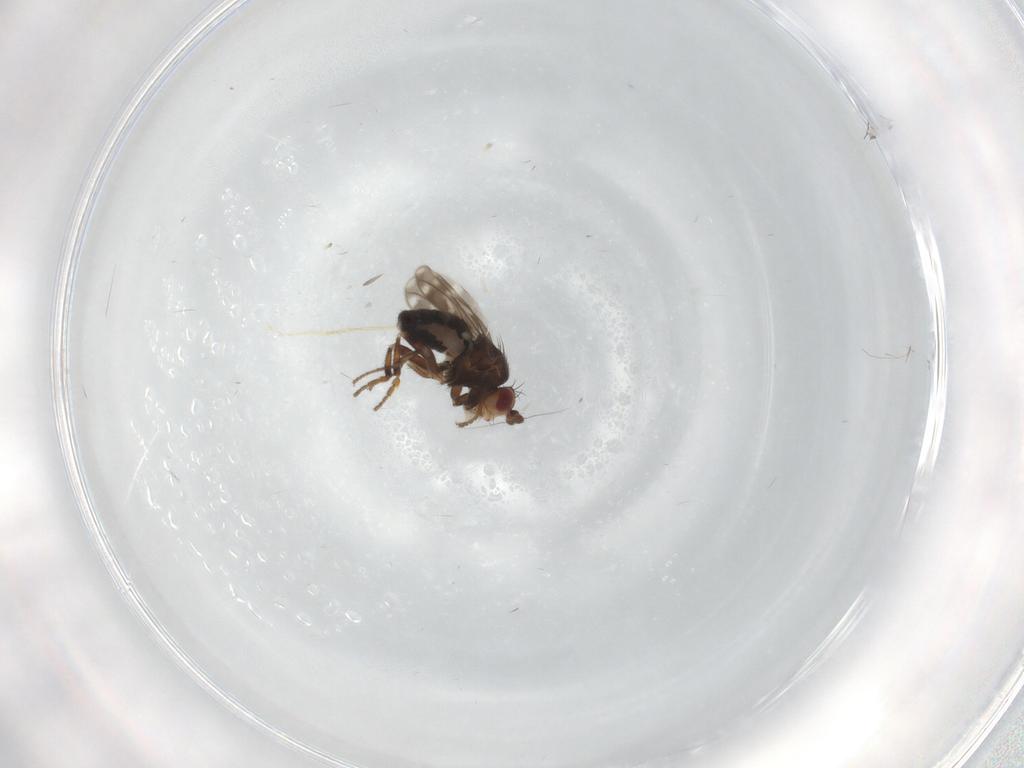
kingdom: Animalia
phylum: Arthropoda
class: Insecta
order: Diptera
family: Sphaeroceridae
